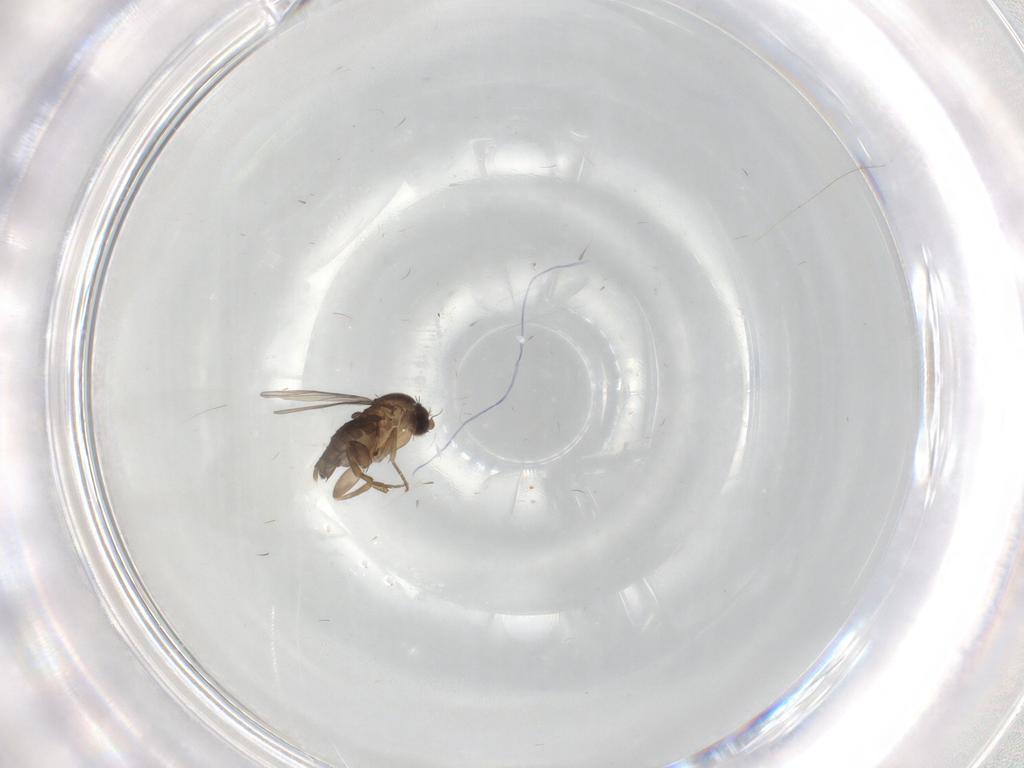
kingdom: Animalia
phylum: Arthropoda
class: Insecta
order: Diptera
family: Phoridae
